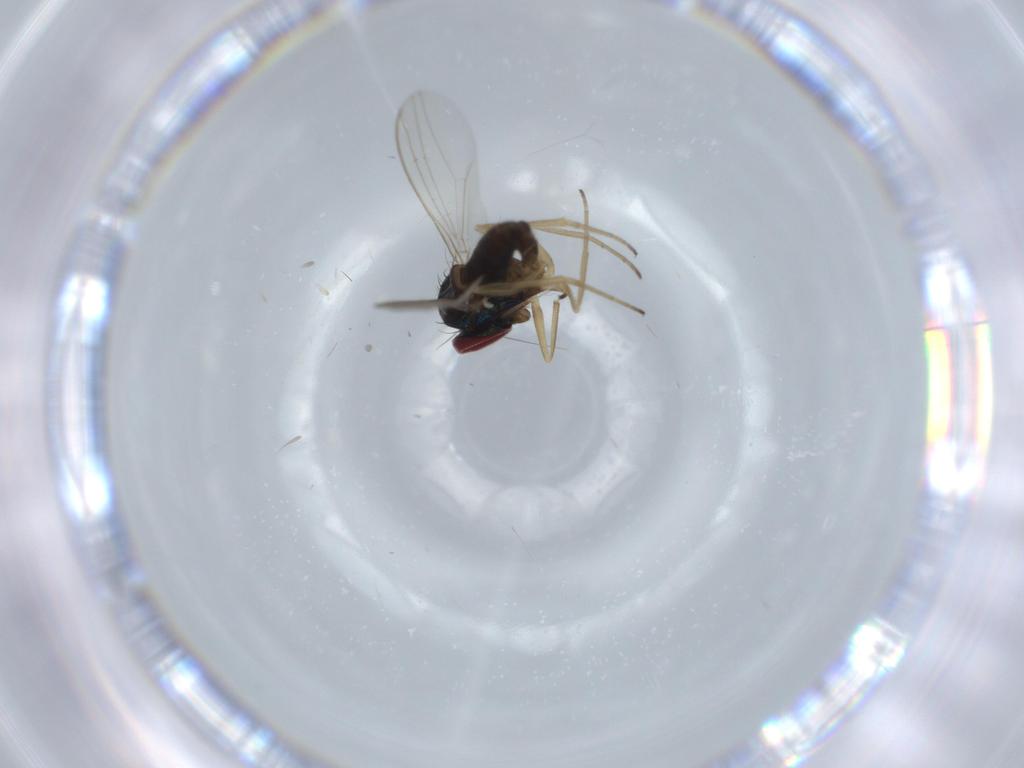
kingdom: Animalia
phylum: Arthropoda
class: Insecta
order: Diptera
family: Sciaridae
